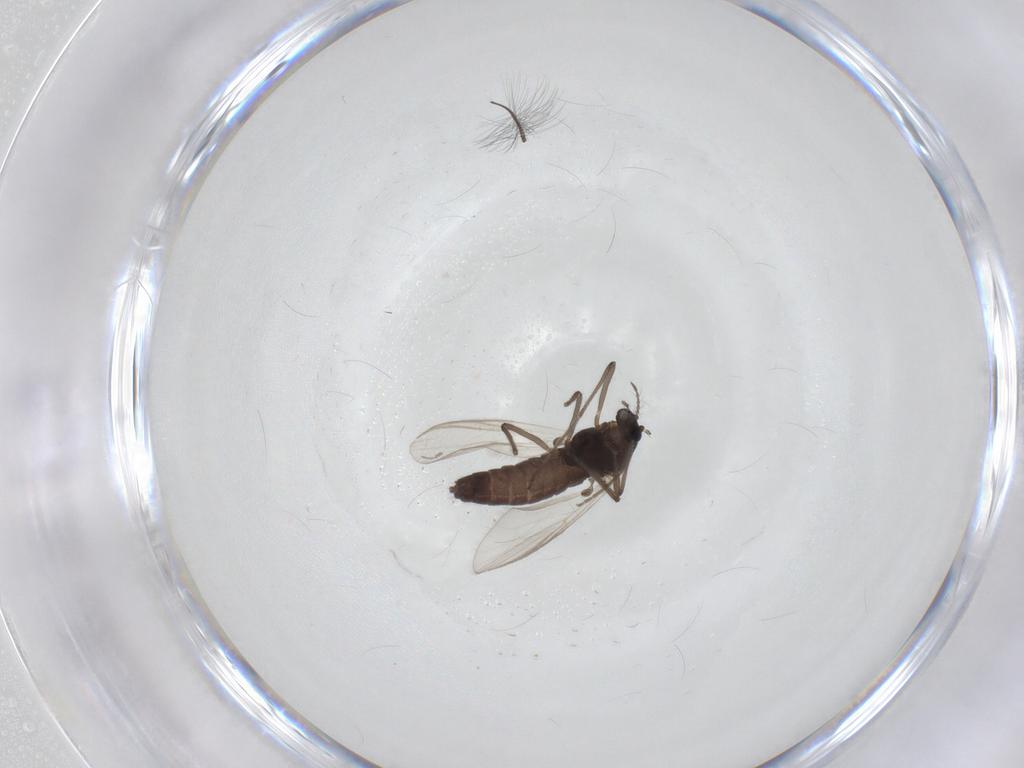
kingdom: Animalia
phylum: Arthropoda
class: Insecta
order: Diptera
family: Chironomidae
